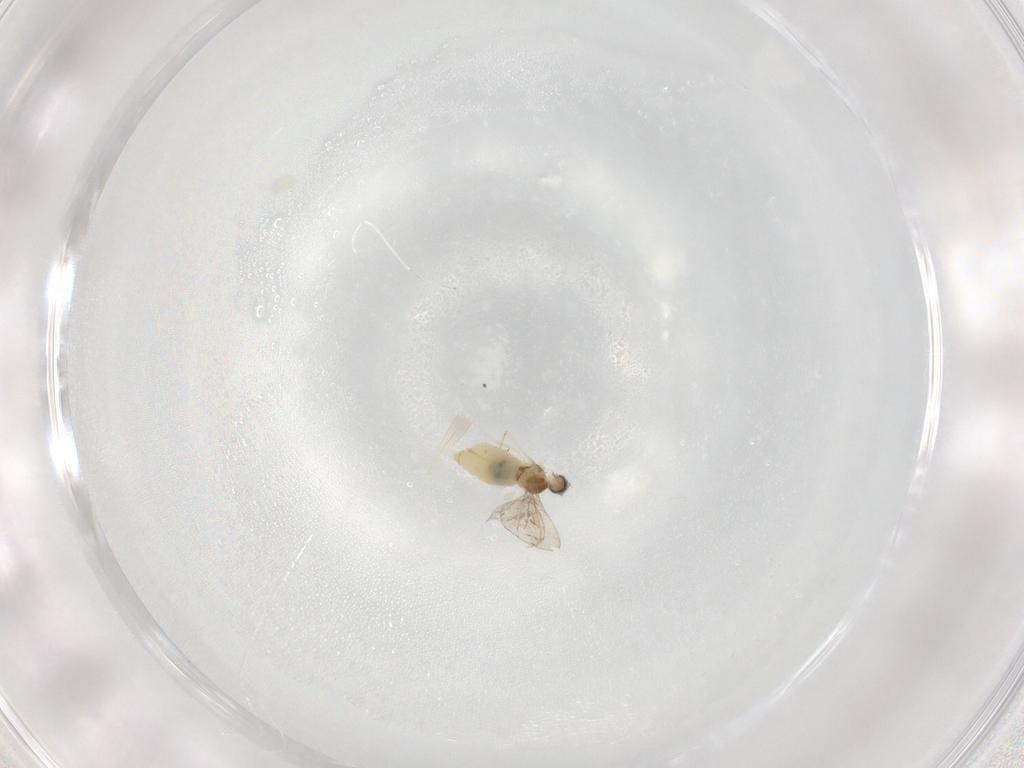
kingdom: Animalia
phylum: Arthropoda
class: Insecta
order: Diptera
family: Cecidomyiidae
